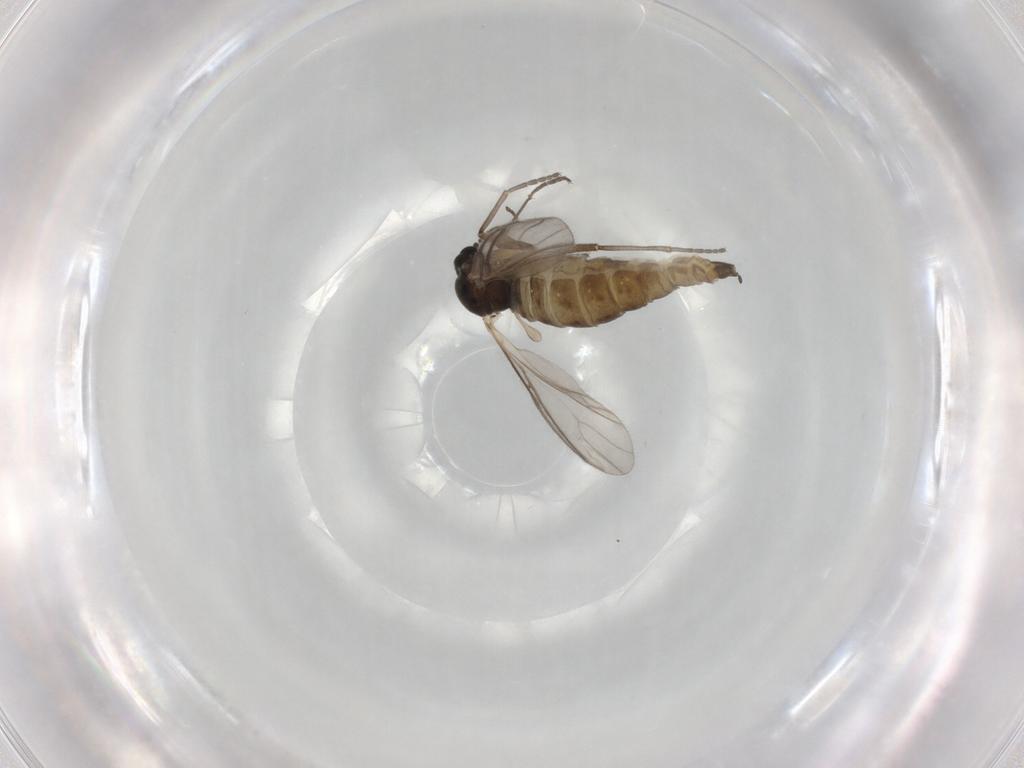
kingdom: Animalia
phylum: Arthropoda
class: Insecta
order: Diptera
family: Sciaridae
